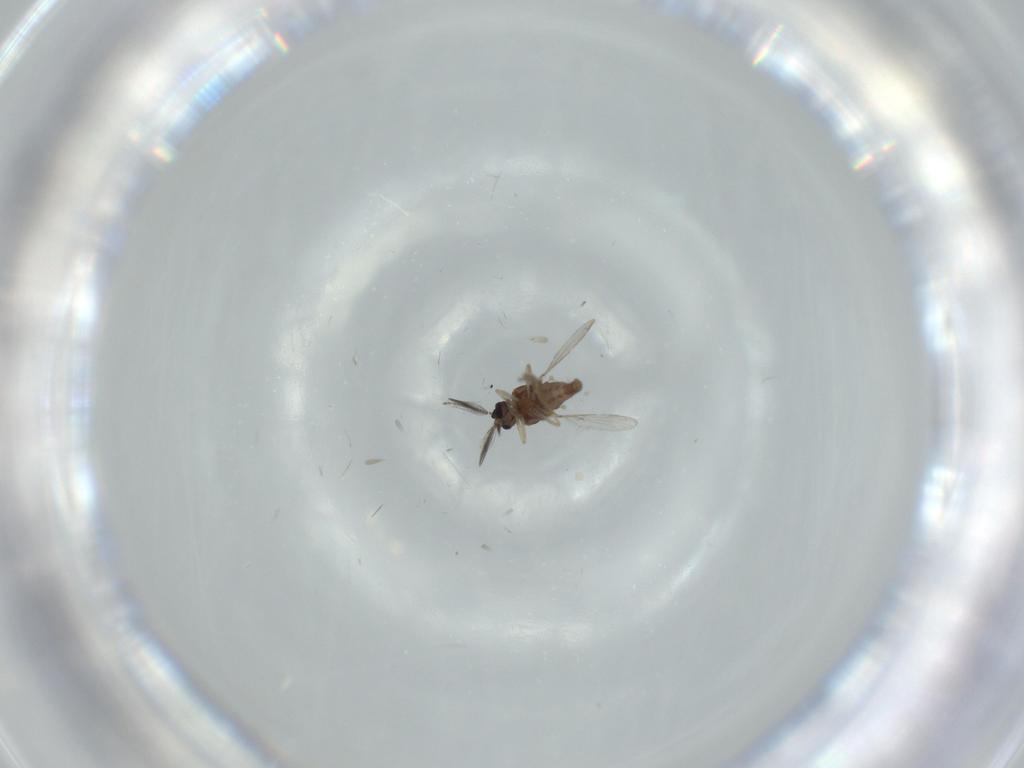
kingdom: Animalia
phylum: Arthropoda
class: Insecta
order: Diptera
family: Ceratopogonidae
